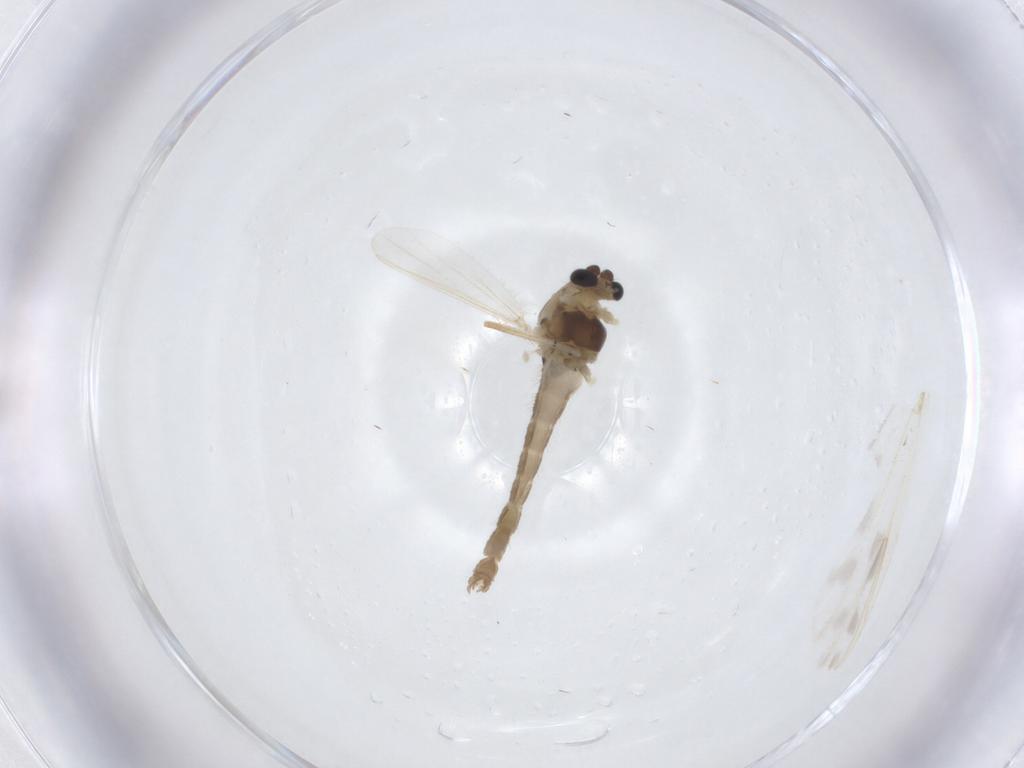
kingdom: Animalia
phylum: Arthropoda
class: Insecta
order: Diptera
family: Chironomidae
